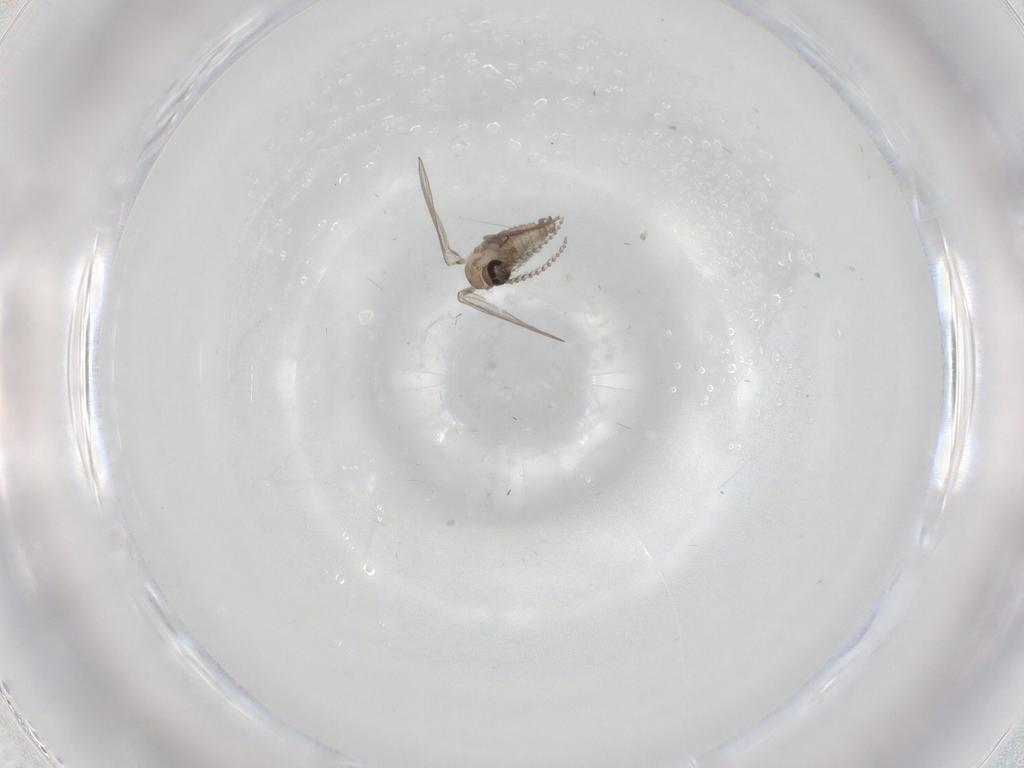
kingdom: Animalia
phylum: Arthropoda
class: Insecta
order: Diptera
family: Psychodidae
